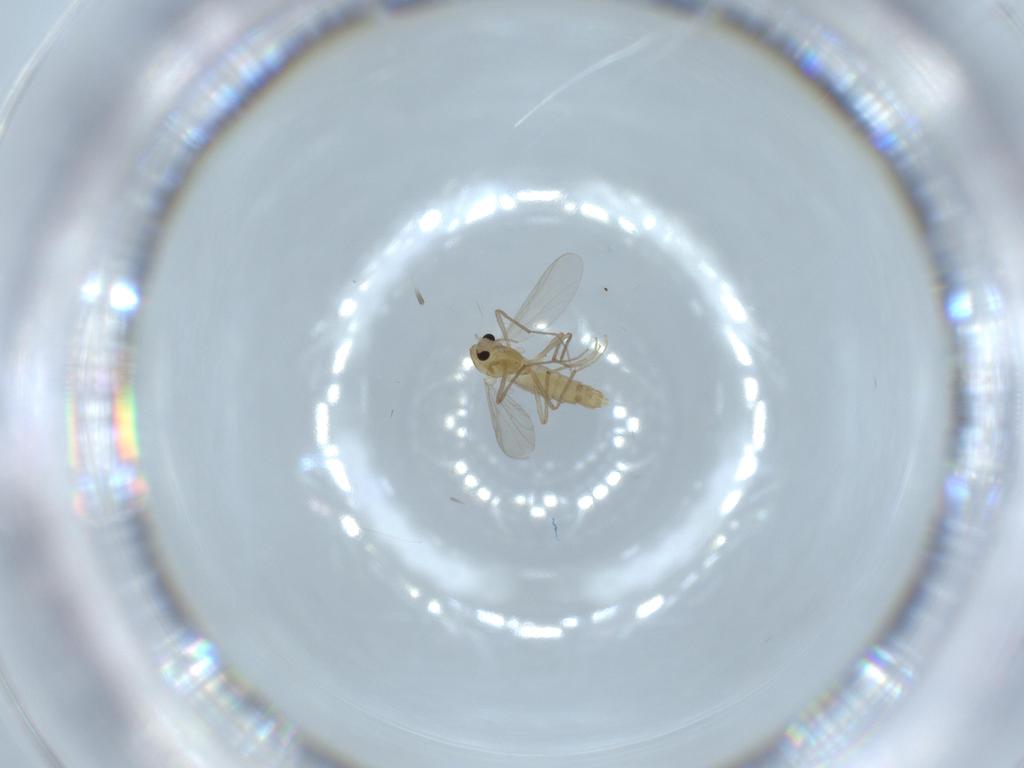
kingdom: Animalia
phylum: Arthropoda
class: Insecta
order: Diptera
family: Chironomidae
